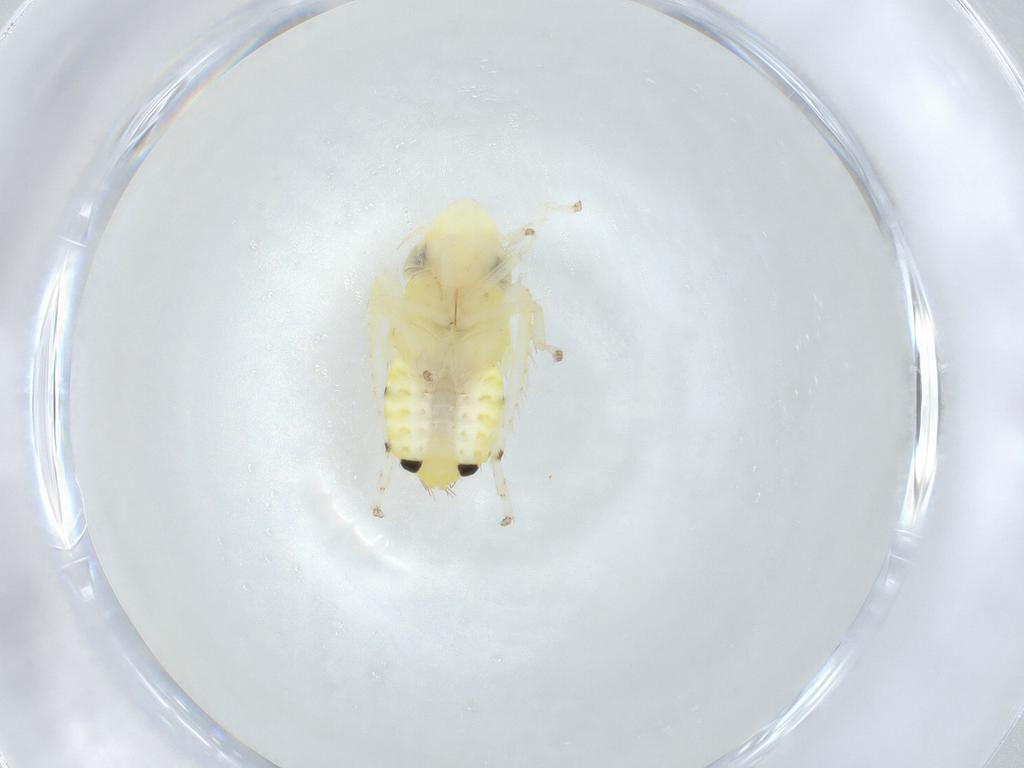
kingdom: Animalia
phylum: Arthropoda
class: Insecta
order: Hemiptera
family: Cicadellidae
